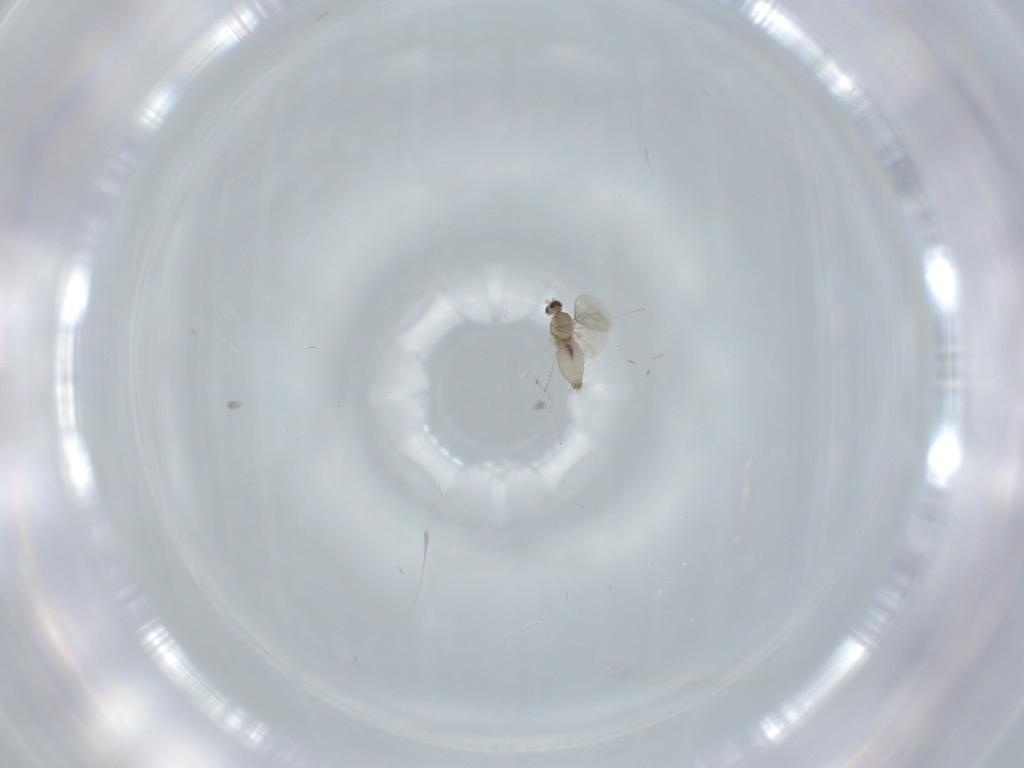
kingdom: Animalia
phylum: Arthropoda
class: Insecta
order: Diptera
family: Cecidomyiidae
